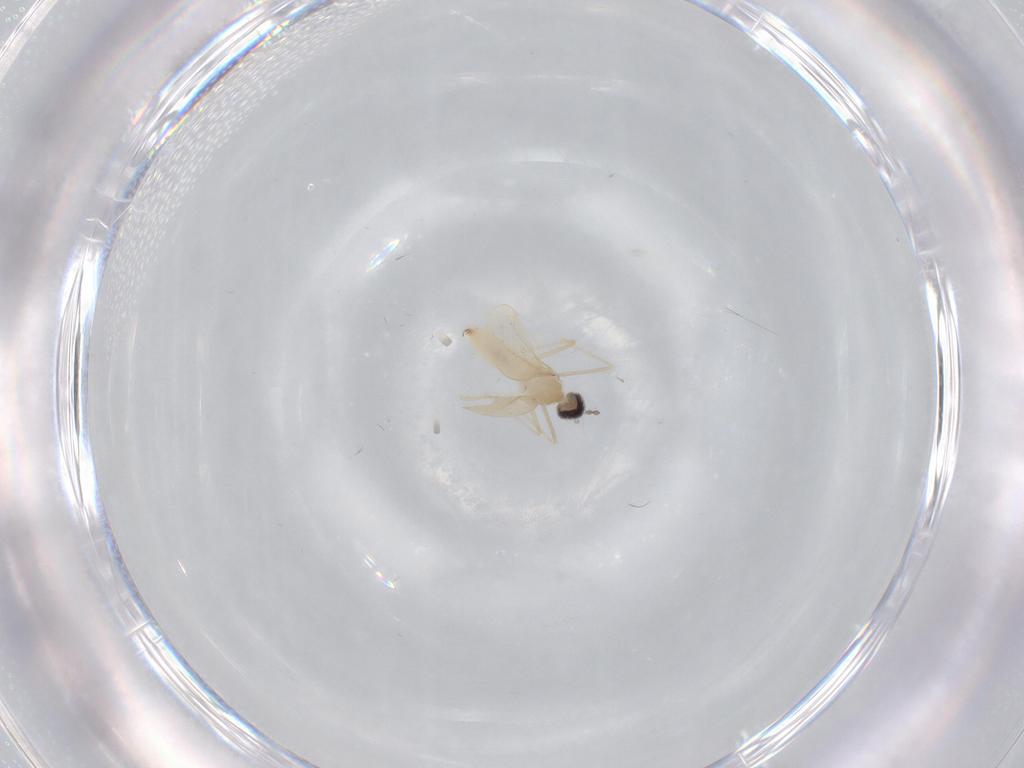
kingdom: Animalia
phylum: Arthropoda
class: Insecta
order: Diptera
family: Cecidomyiidae
